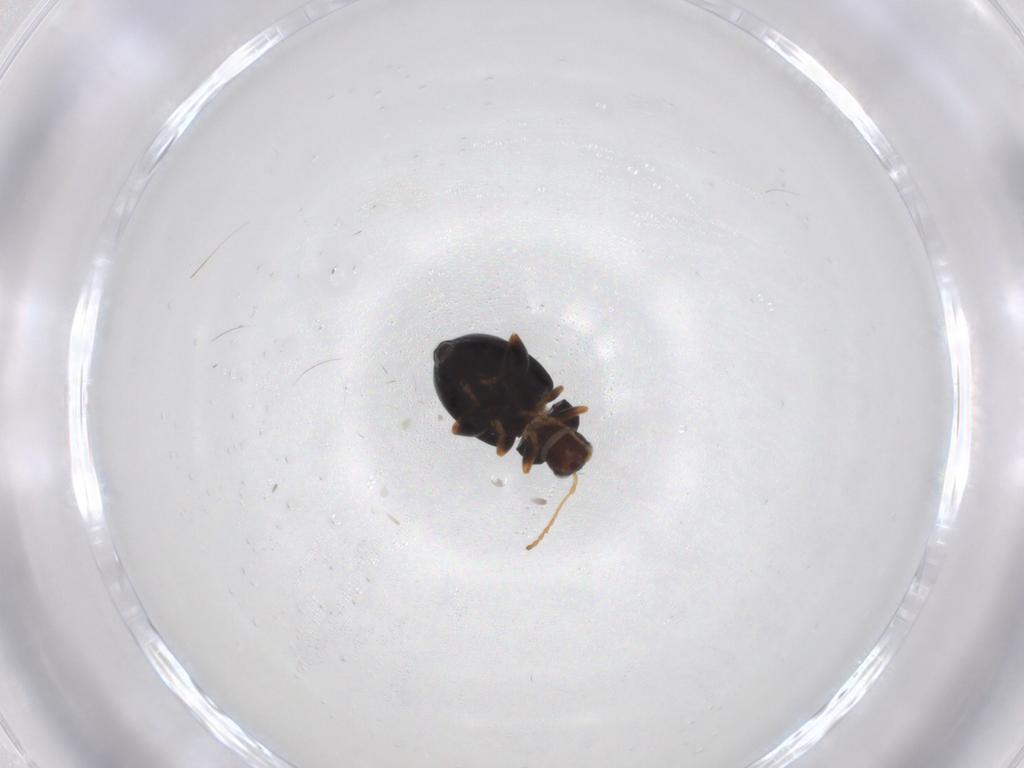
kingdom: Animalia
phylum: Arthropoda
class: Insecta
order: Coleoptera
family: Chrysomelidae
